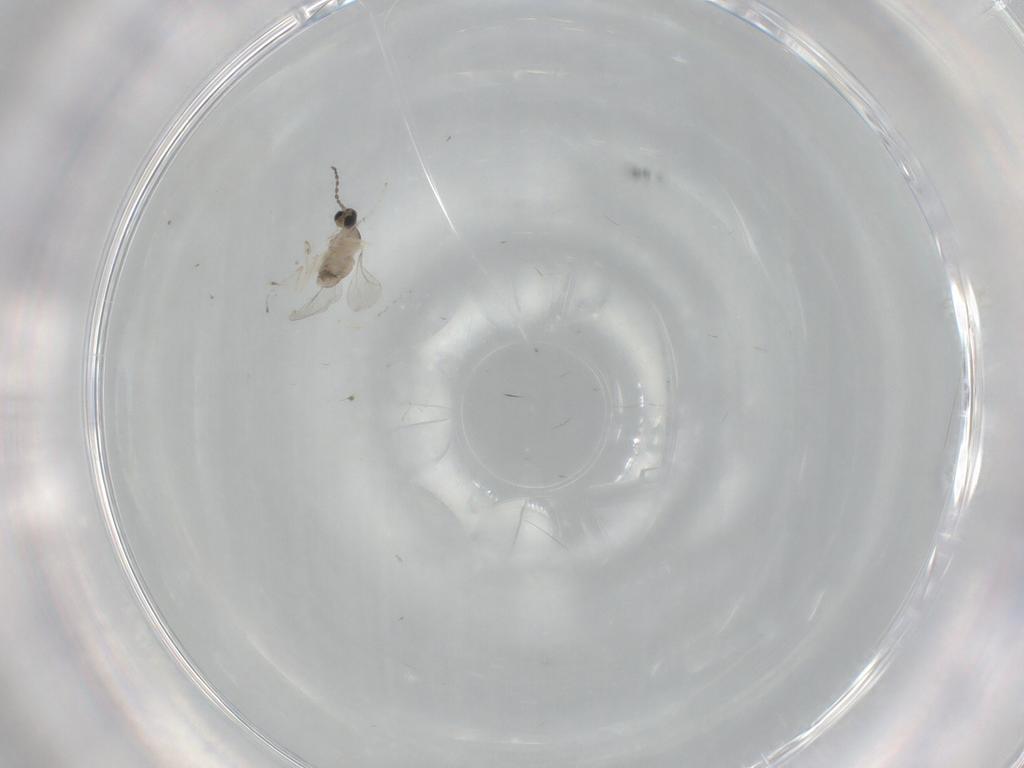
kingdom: Animalia
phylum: Arthropoda
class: Insecta
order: Diptera
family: Cecidomyiidae
